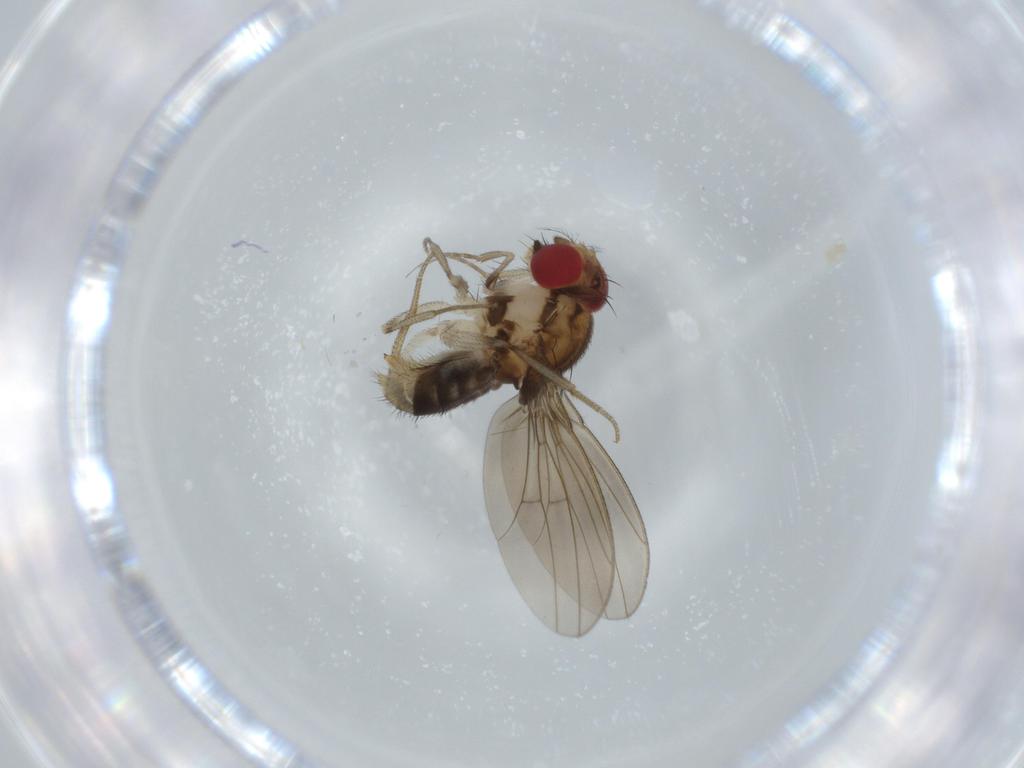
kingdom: Animalia
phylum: Arthropoda
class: Insecta
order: Diptera
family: Drosophilidae
